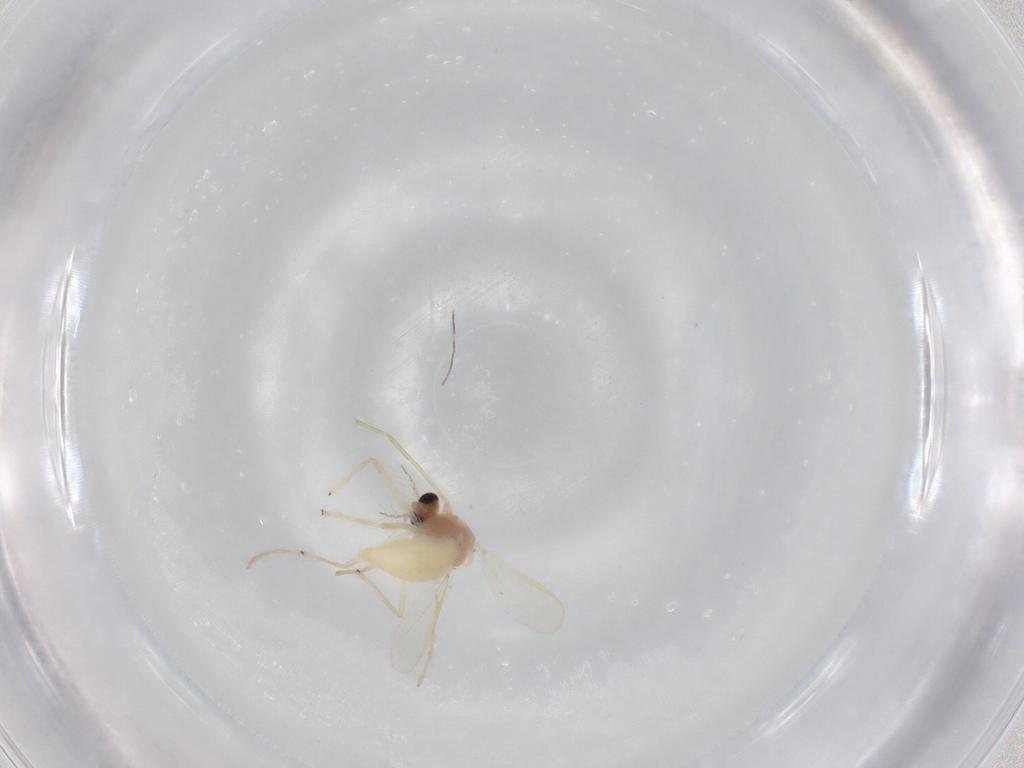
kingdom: Animalia
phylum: Arthropoda
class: Insecta
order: Diptera
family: Chironomidae
